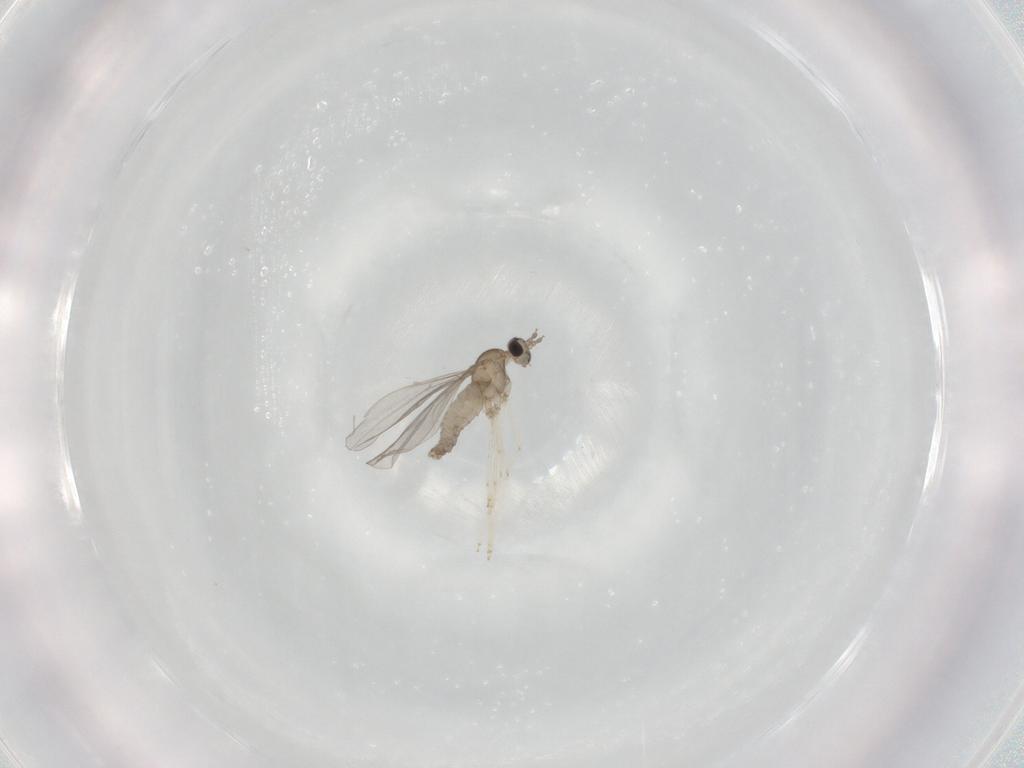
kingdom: Animalia
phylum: Arthropoda
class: Insecta
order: Diptera
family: Cecidomyiidae
